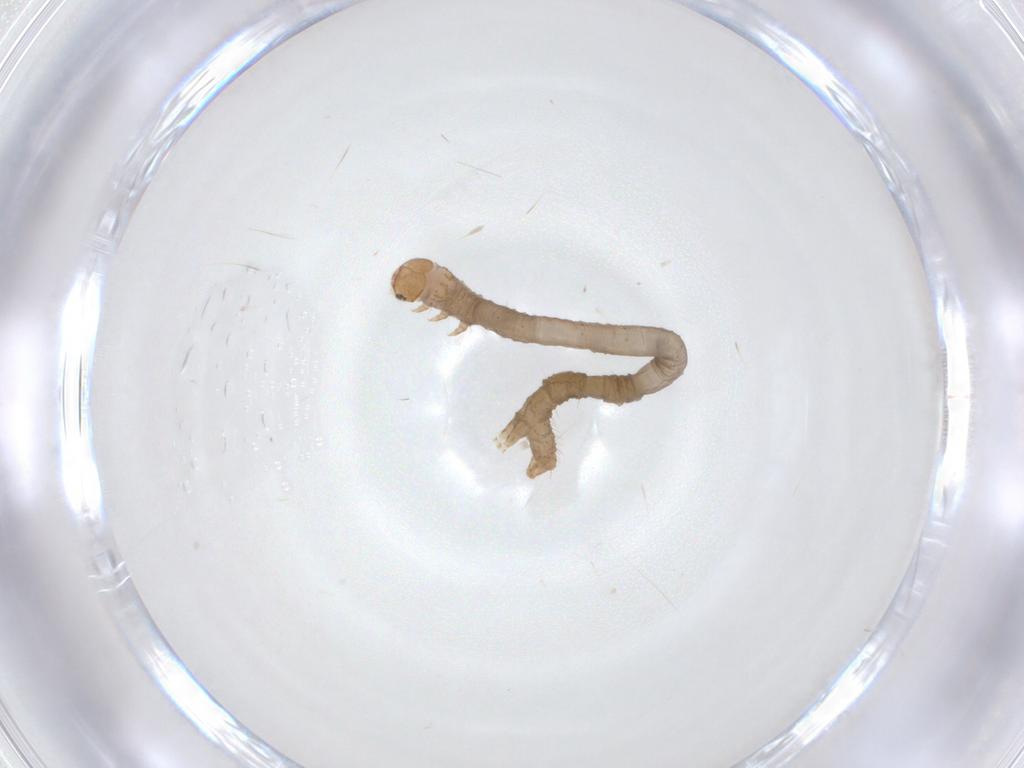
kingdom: Animalia
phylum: Arthropoda
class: Insecta
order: Lepidoptera
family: Geometridae
